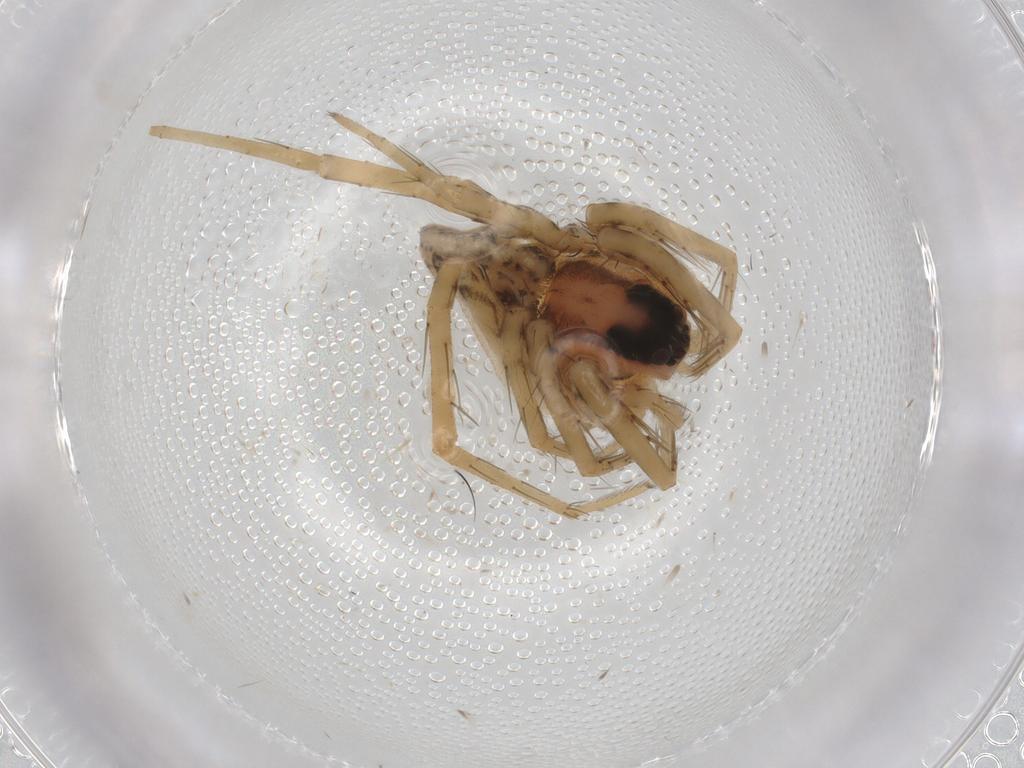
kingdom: Animalia
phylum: Arthropoda
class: Arachnida
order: Araneae
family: Lycosidae
